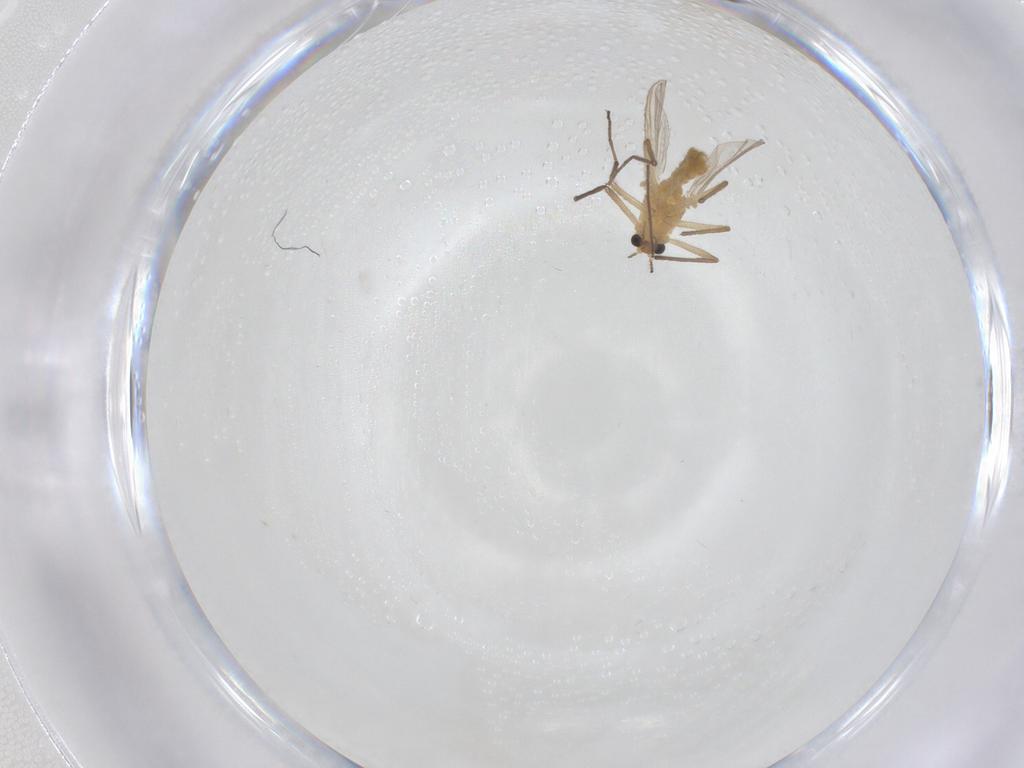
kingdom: Animalia
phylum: Arthropoda
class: Insecta
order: Diptera
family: Chironomidae
